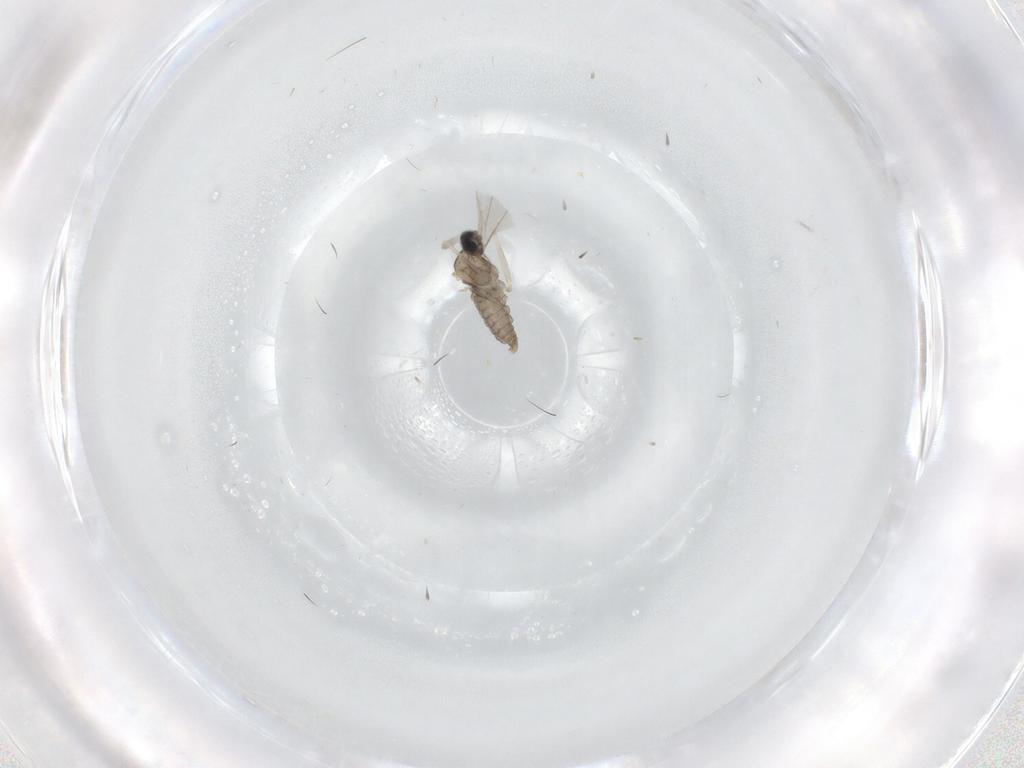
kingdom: Animalia
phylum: Arthropoda
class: Insecta
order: Diptera
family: Cecidomyiidae
